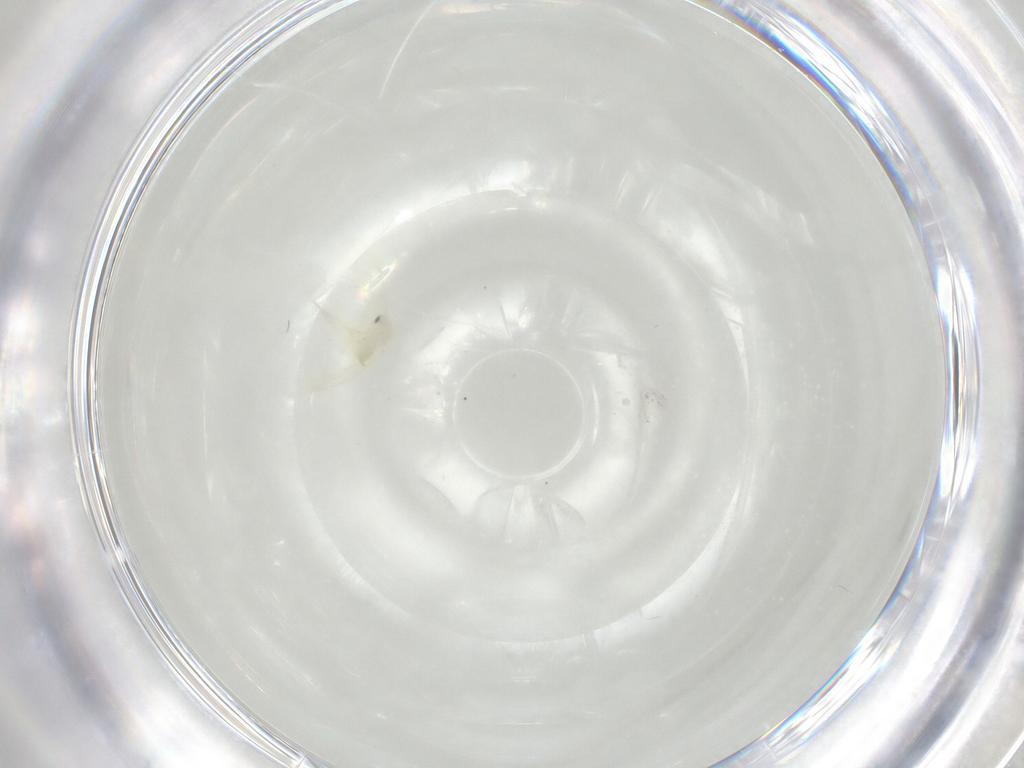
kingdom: Animalia
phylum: Arthropoda
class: Insecta
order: Hemiptera
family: Aleyrodidae
